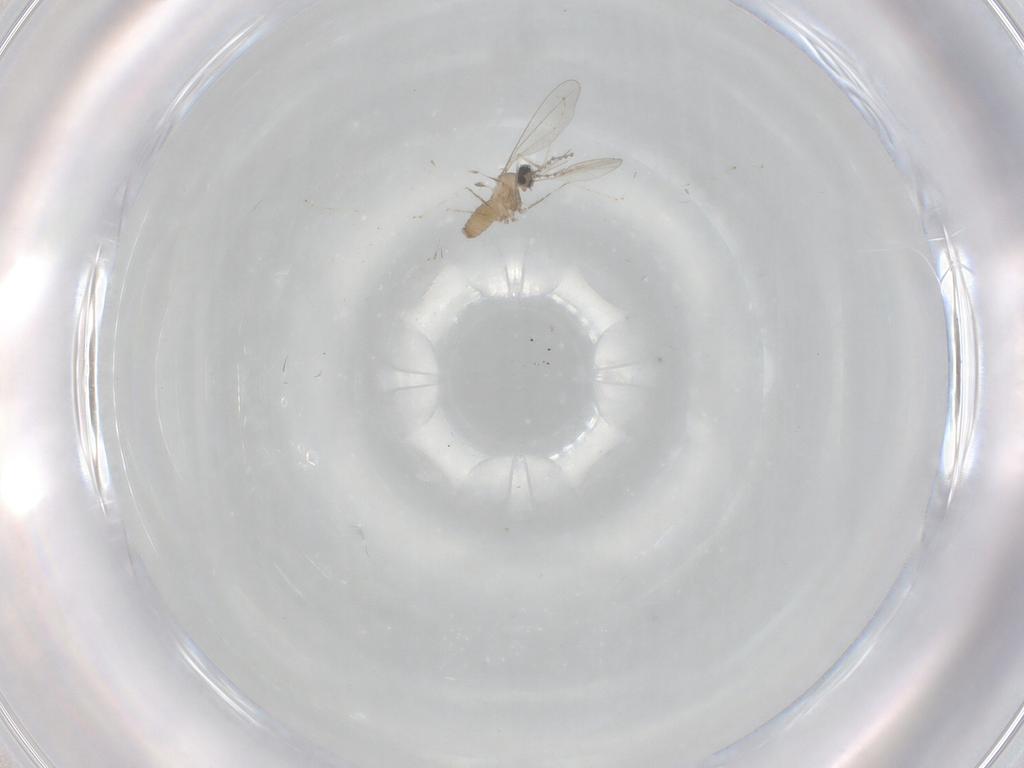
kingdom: Animalia
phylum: Arthropoda
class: Insecta
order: Diptera
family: Cecidomyiidae
